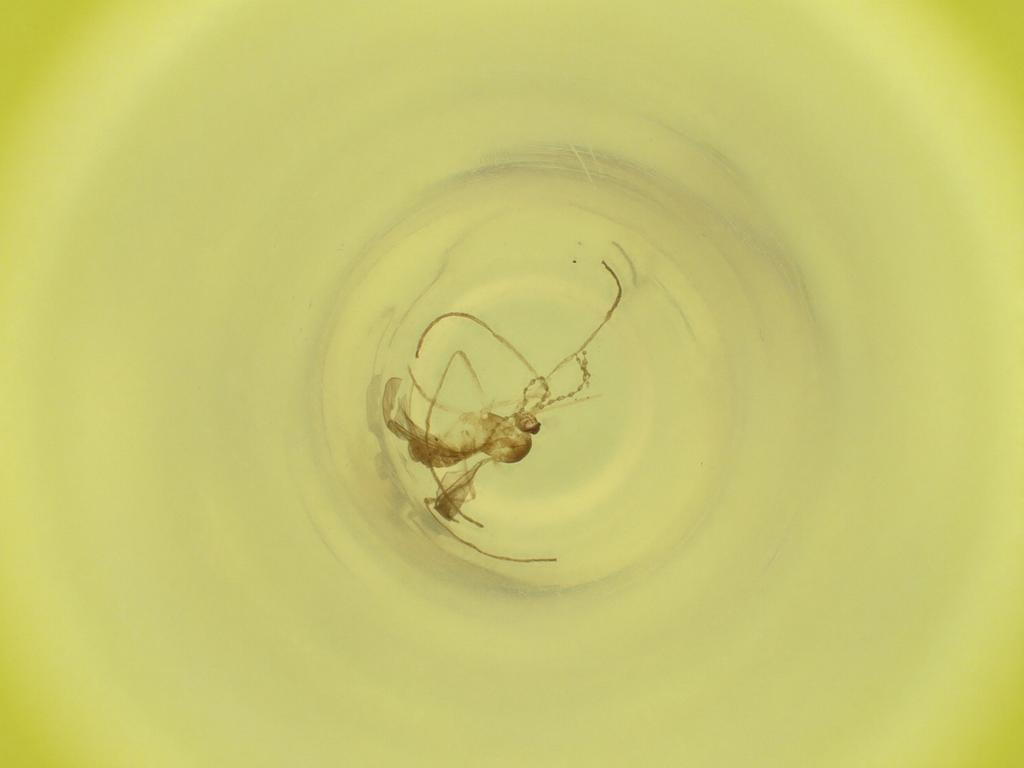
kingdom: Animalia
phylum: Arthropoda
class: Insecta
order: Diptera
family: Cecidomyiidae
